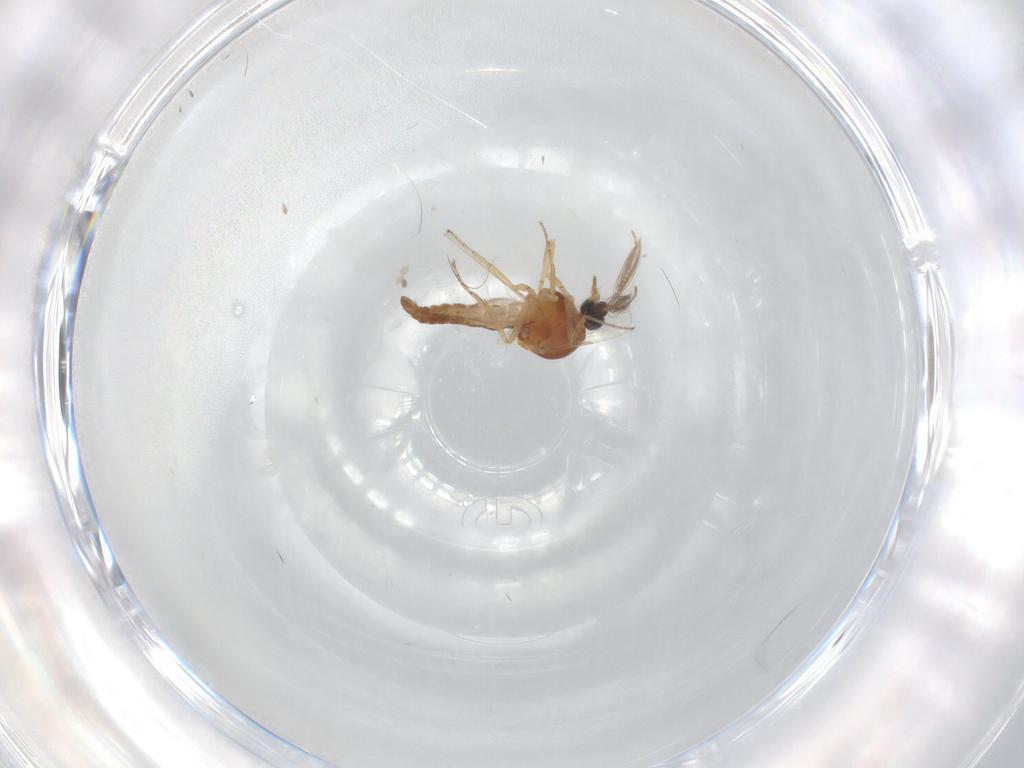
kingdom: Animalia
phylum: Arthropoda
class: Insecta
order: Diptera
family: Ceratopogonidae
